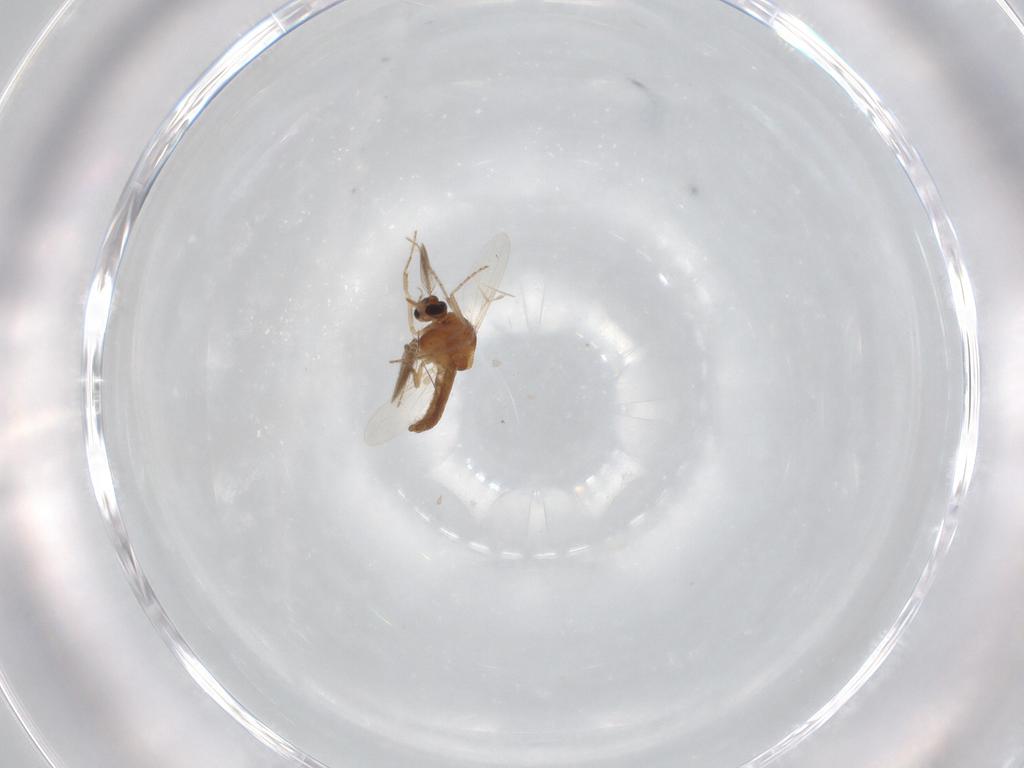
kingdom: Animalia
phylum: Arthropoda
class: Insecta
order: Diptera
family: Ceratopogonidae
